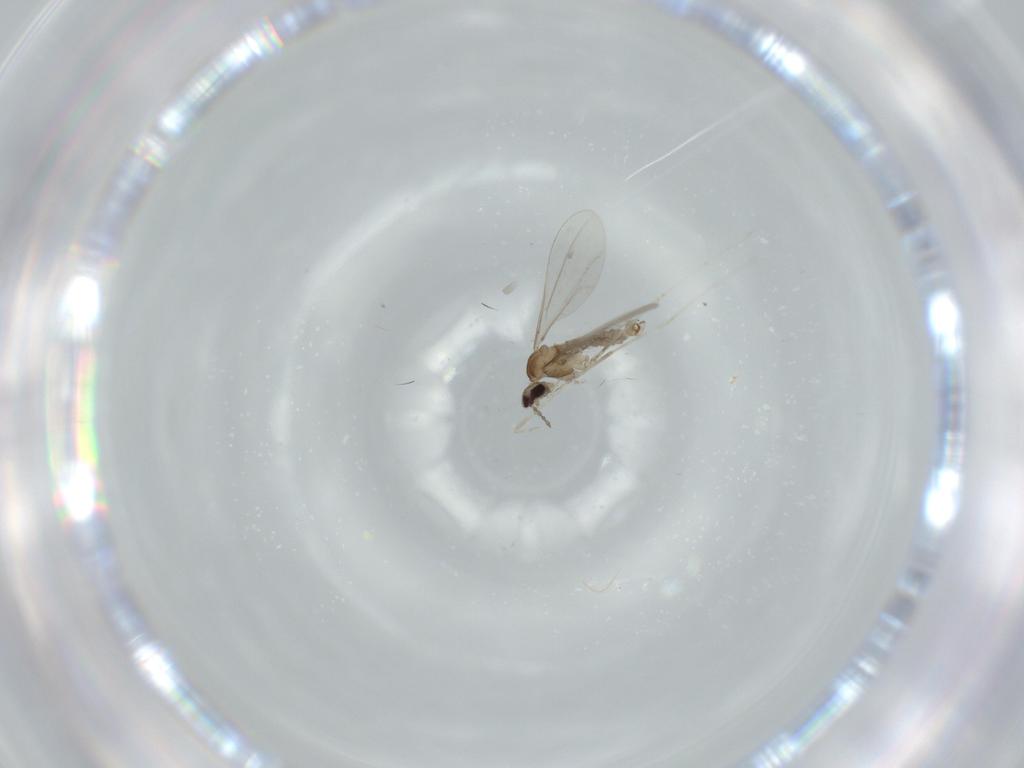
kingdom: Animalia
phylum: Arthropoda
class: Insecta
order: Diptera
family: Cecidomyiidae
